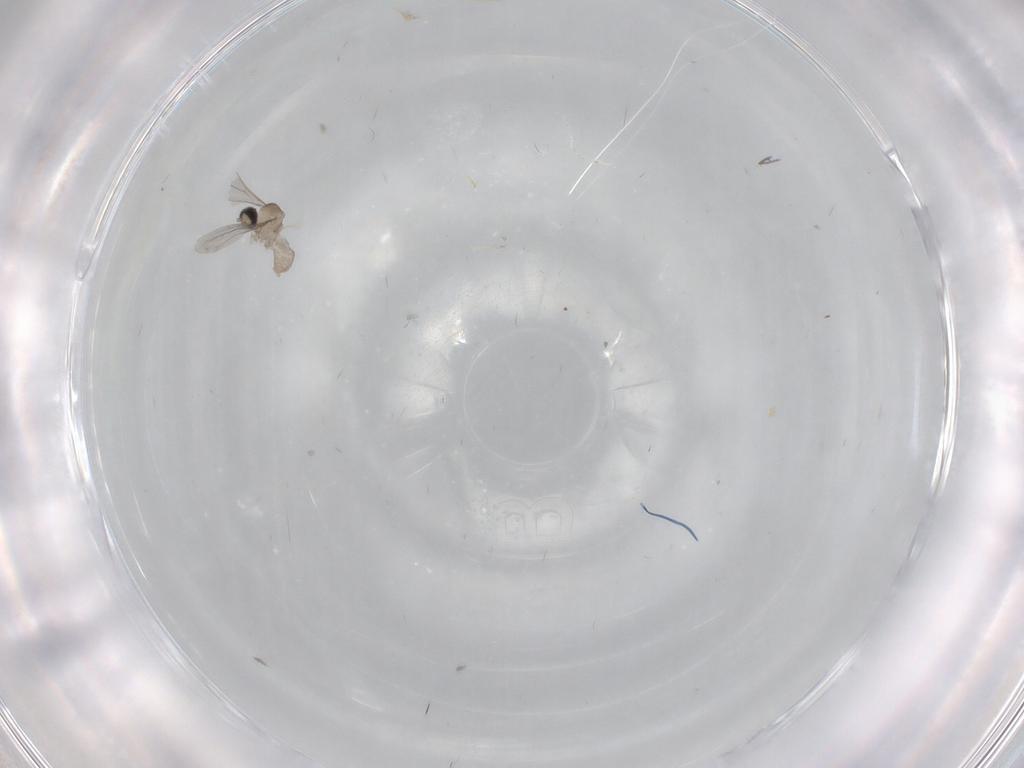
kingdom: Animalia
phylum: Arthropoda
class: Insecta
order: Diptera
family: Cecidomyiidae
